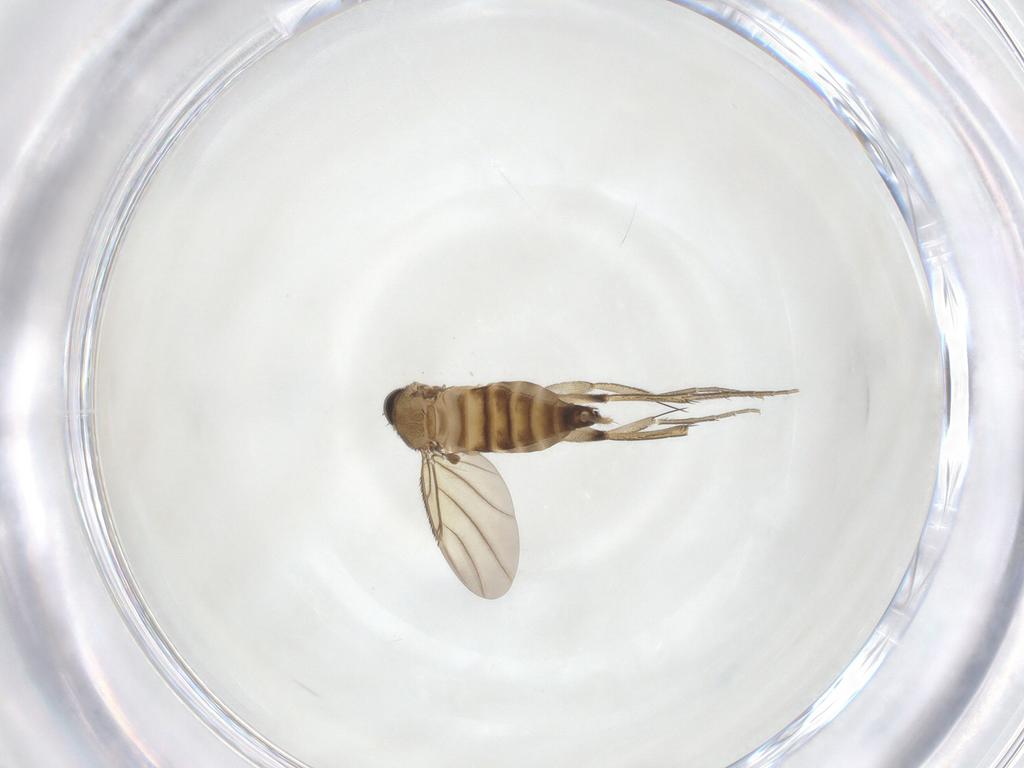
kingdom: Animalia
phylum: Arthropoda
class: Insecta
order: Diptera
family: Phoridae
